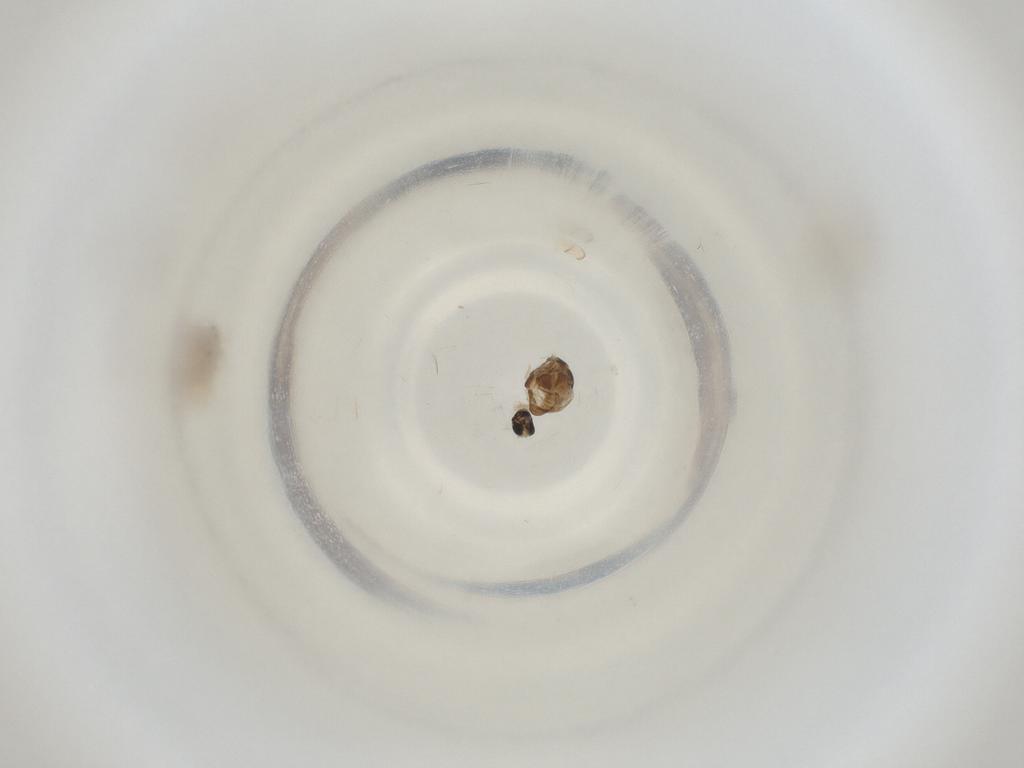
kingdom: Animalia
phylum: Arthropoda
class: Insecta
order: Diptera
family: Cecidomyiidae
